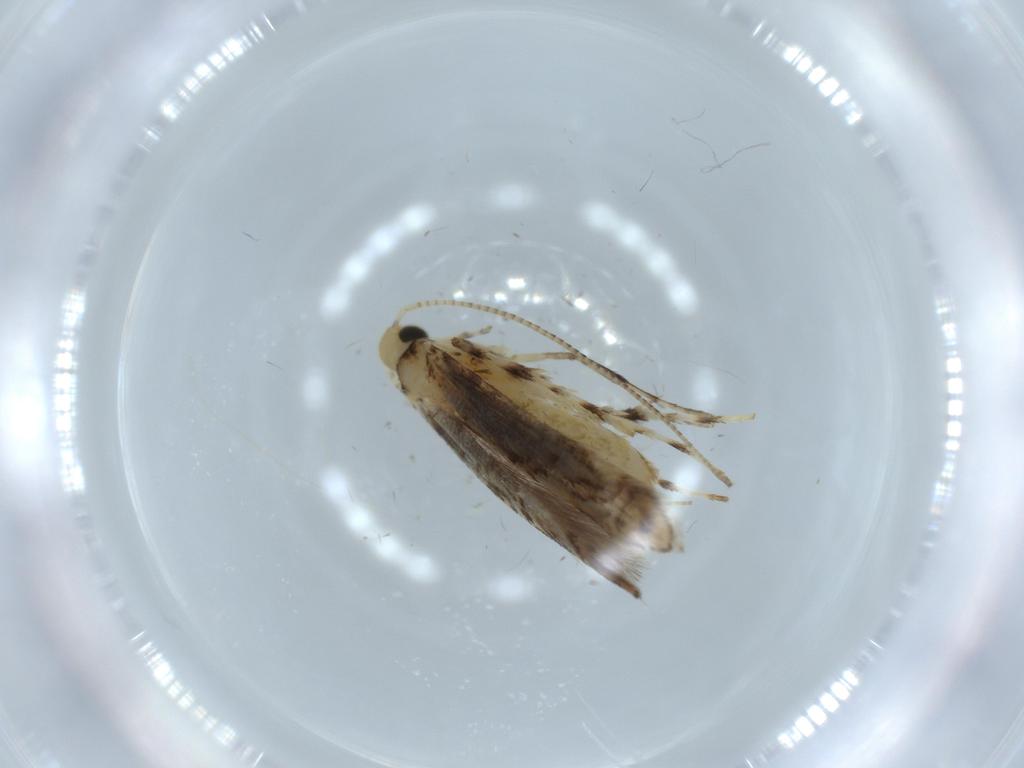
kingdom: Animalia
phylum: Arthropoda
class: Insecta
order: Lepidoptera
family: Gracillariidae
